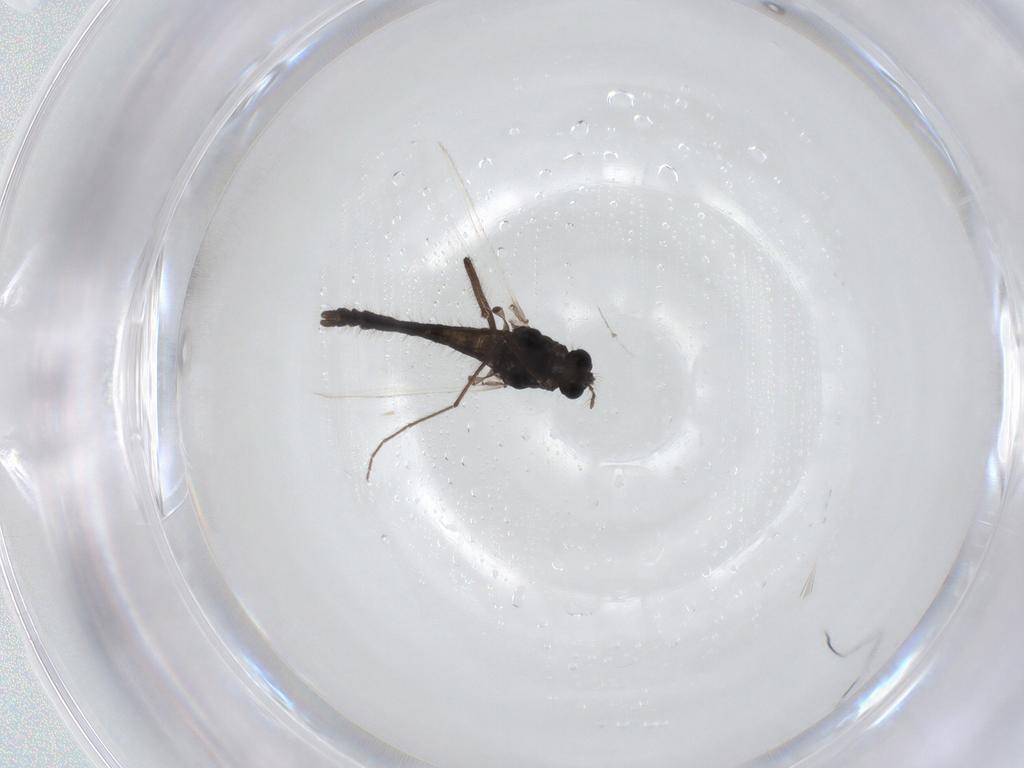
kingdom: Animalia
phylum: Arthropoda
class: Insecta
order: Diptera
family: Chironomidae
